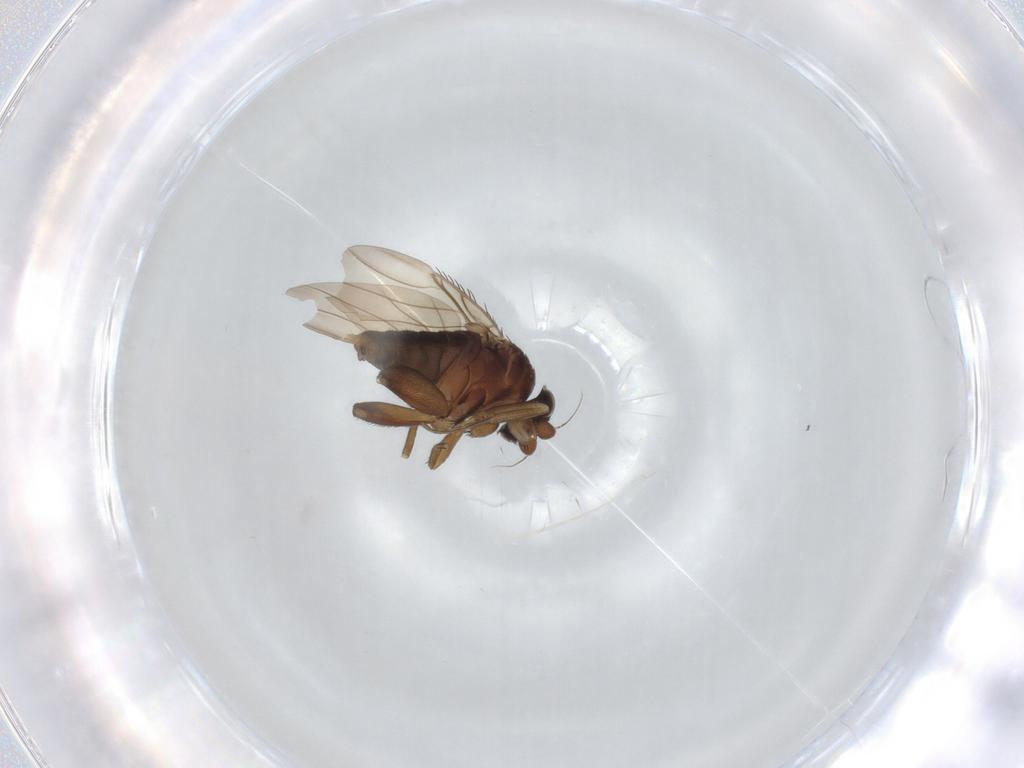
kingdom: Animalia
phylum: Arthropoda
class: Insecta
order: Diptera
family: Phoridae
